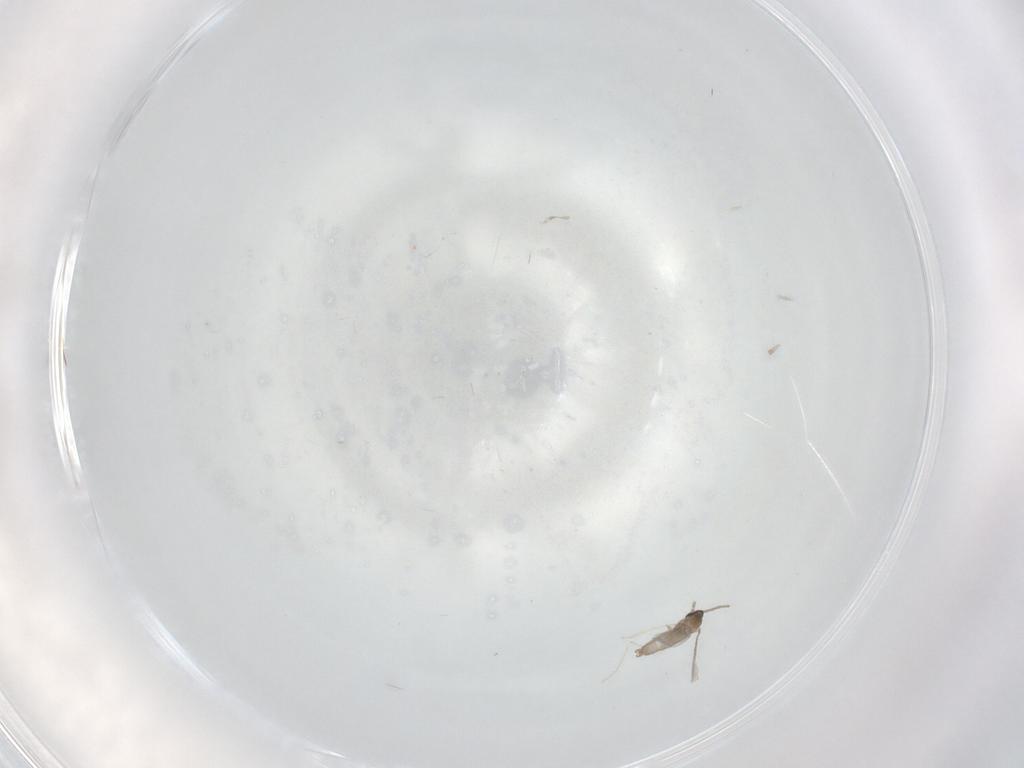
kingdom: Animalia
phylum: Arthropoda
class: Insecta
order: Diptera
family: Cecidomyiidae
